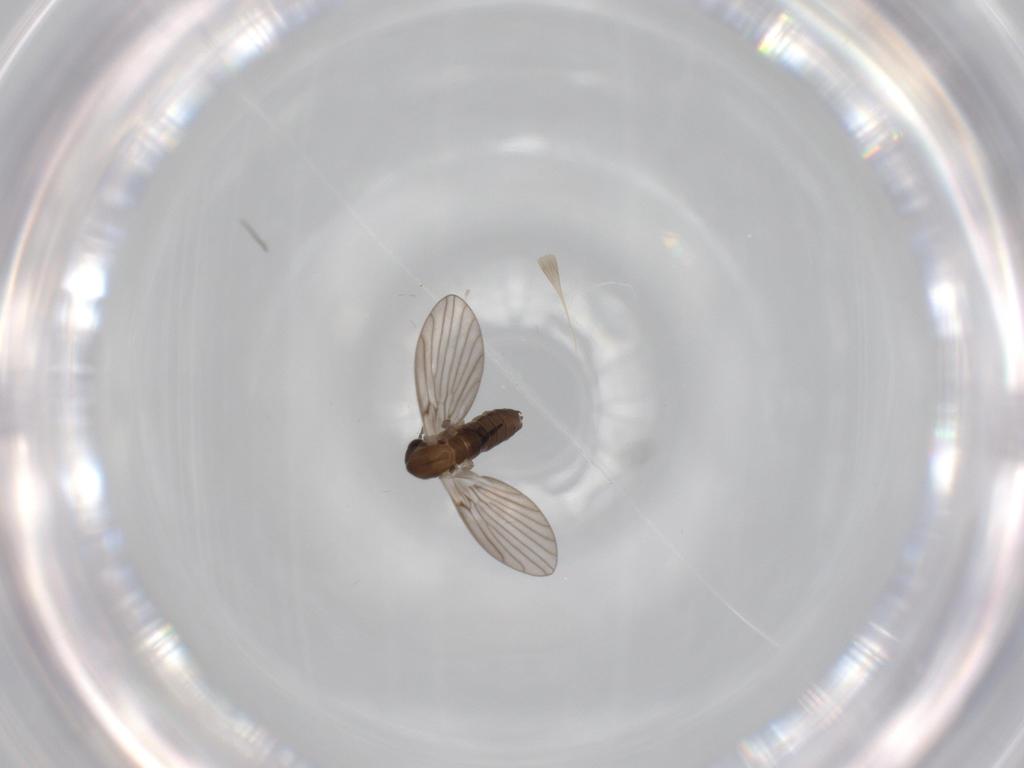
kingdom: Animalia
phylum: Arthropoda
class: Insecta
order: Diptera
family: Psychodidae
